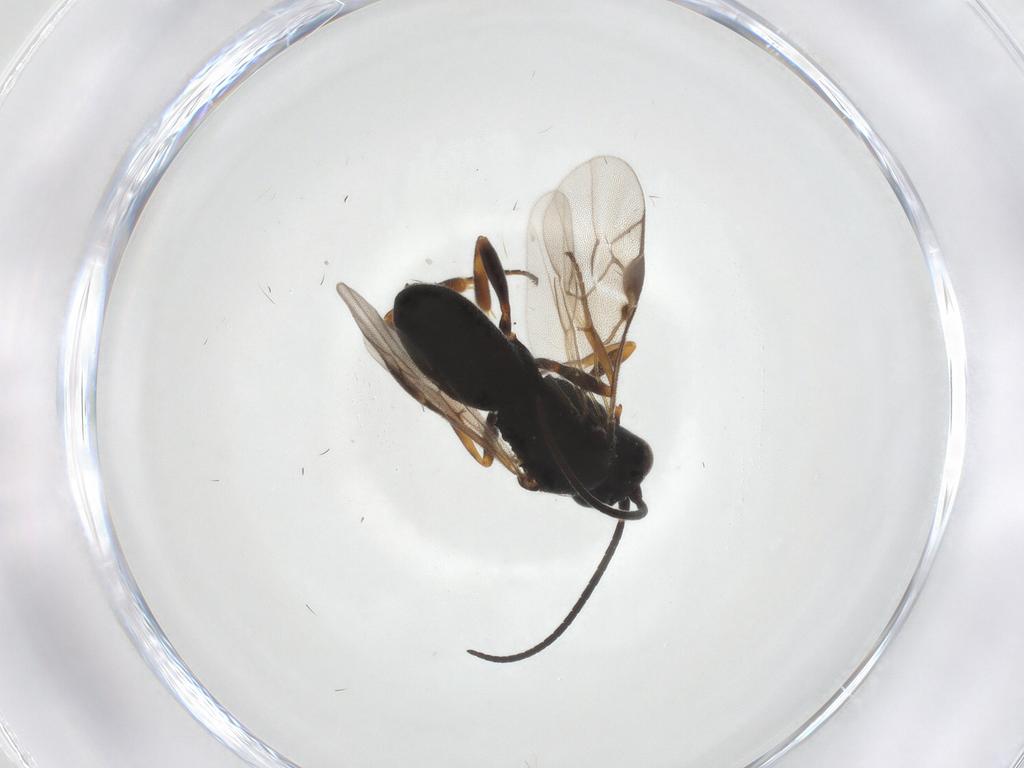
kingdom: Animalia
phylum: Arthropoda
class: Insecta
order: Hymenoptera
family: Braconidae
